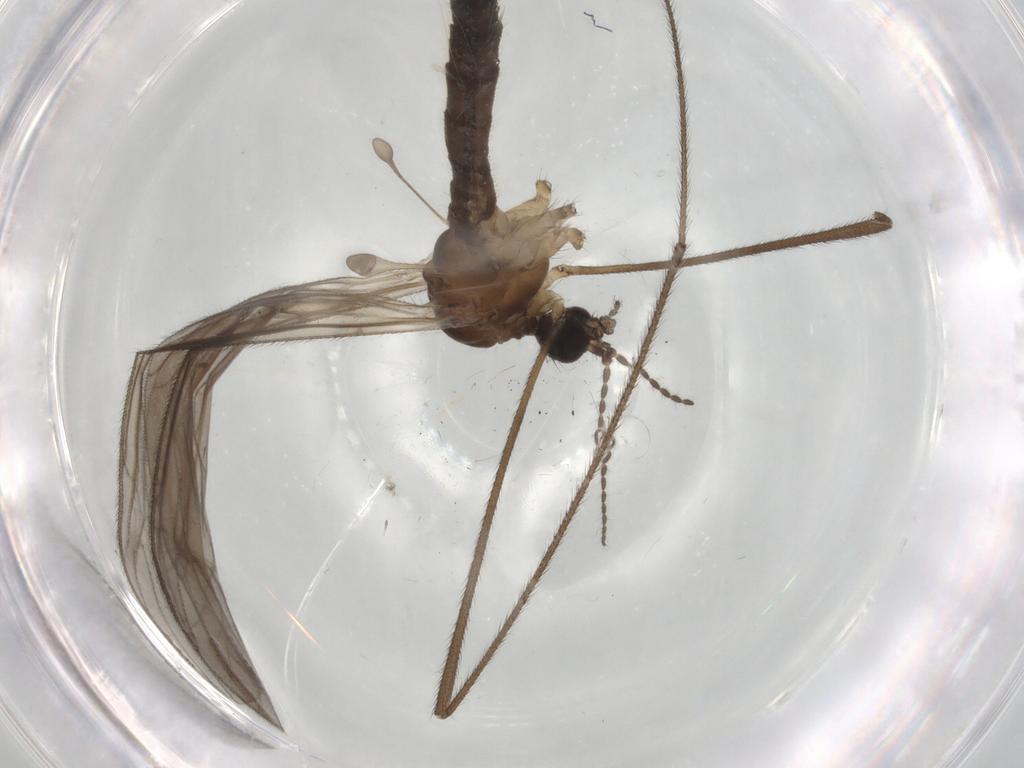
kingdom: Animalia
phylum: Arthropoda
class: Insecta
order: Diptera
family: Limoniidae
